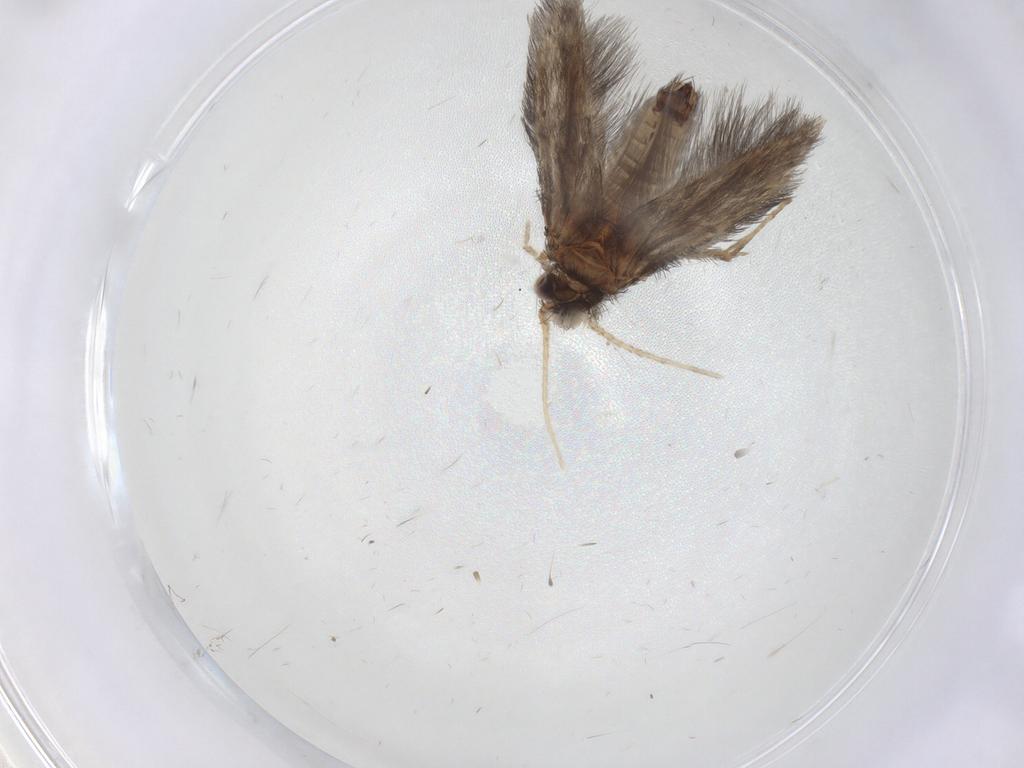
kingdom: Animalia
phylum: Arthropoda
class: Insecta
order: Trichoptera
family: Hydroptilidae
